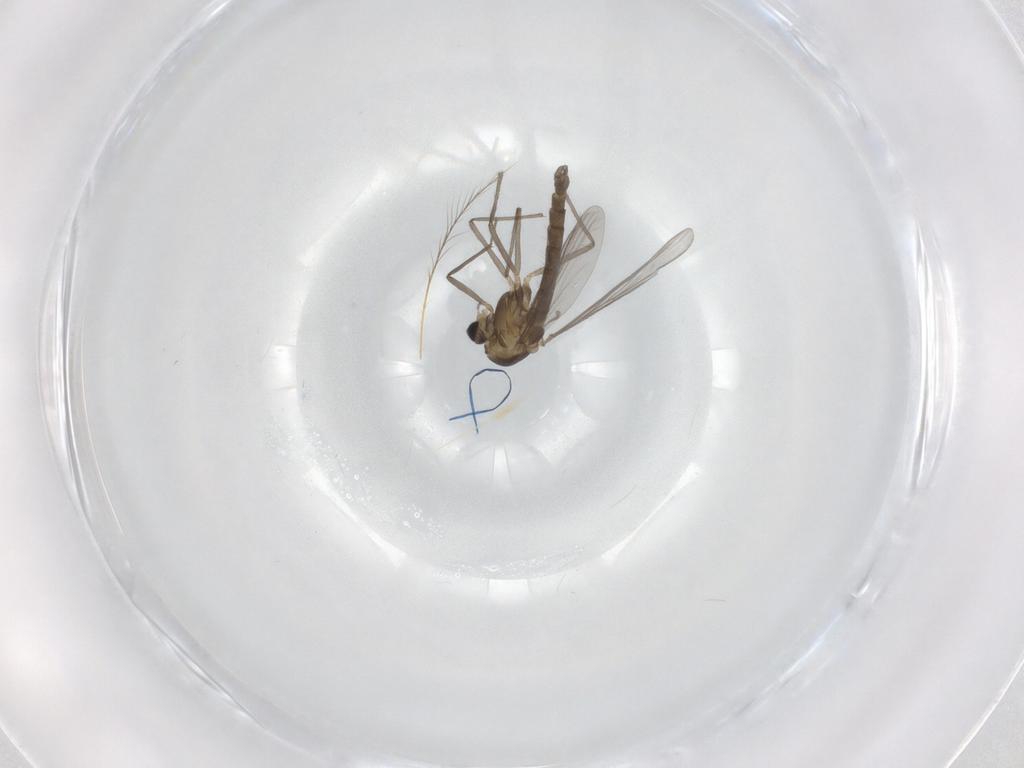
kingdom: Animalia
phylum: Arthropoda
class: Insecta
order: Diptera
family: Chironomidae
